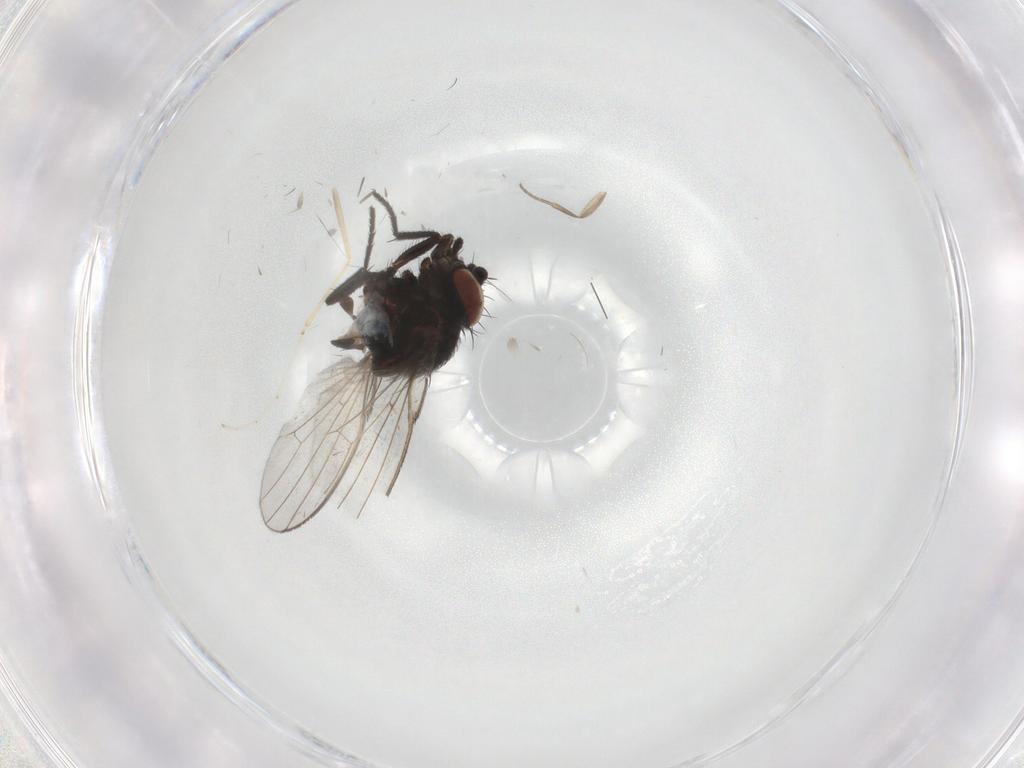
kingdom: Animalia
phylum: Arthropoda
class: Insecta
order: Diptera
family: Milichiidae
